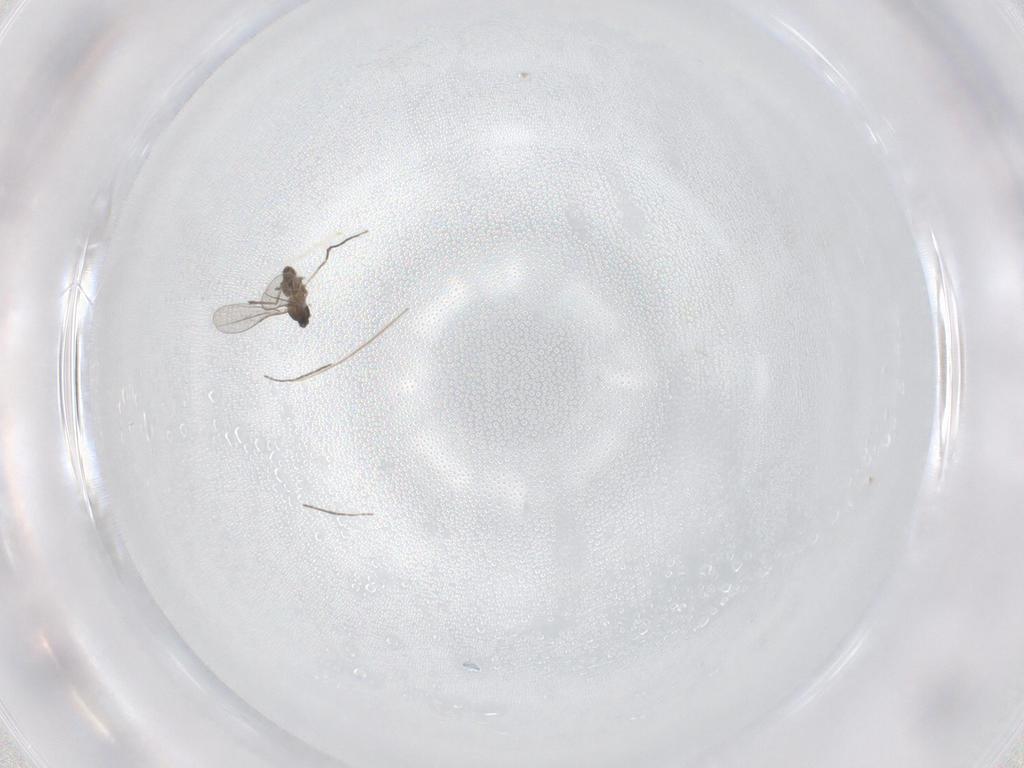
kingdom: Animalia
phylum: Arthropoda
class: Insecta
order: Diptera
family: Cecidomyiidae
